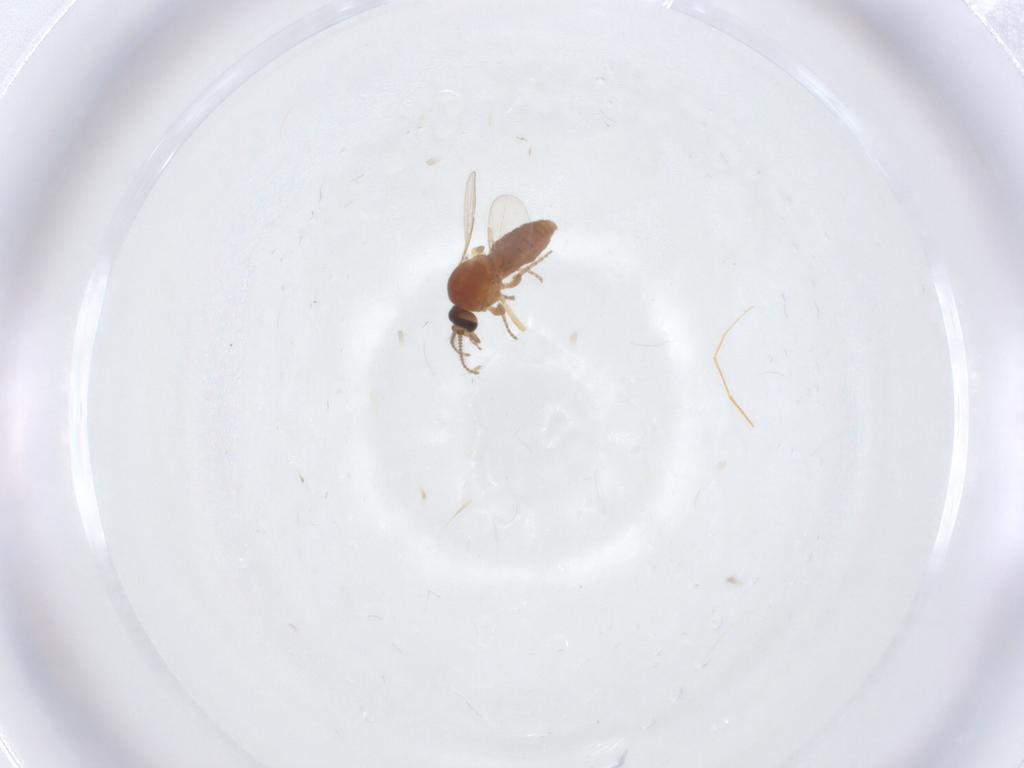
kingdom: Animalia
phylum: Arthropoda
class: Insecta
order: Diptera
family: Ceratopogonidae
